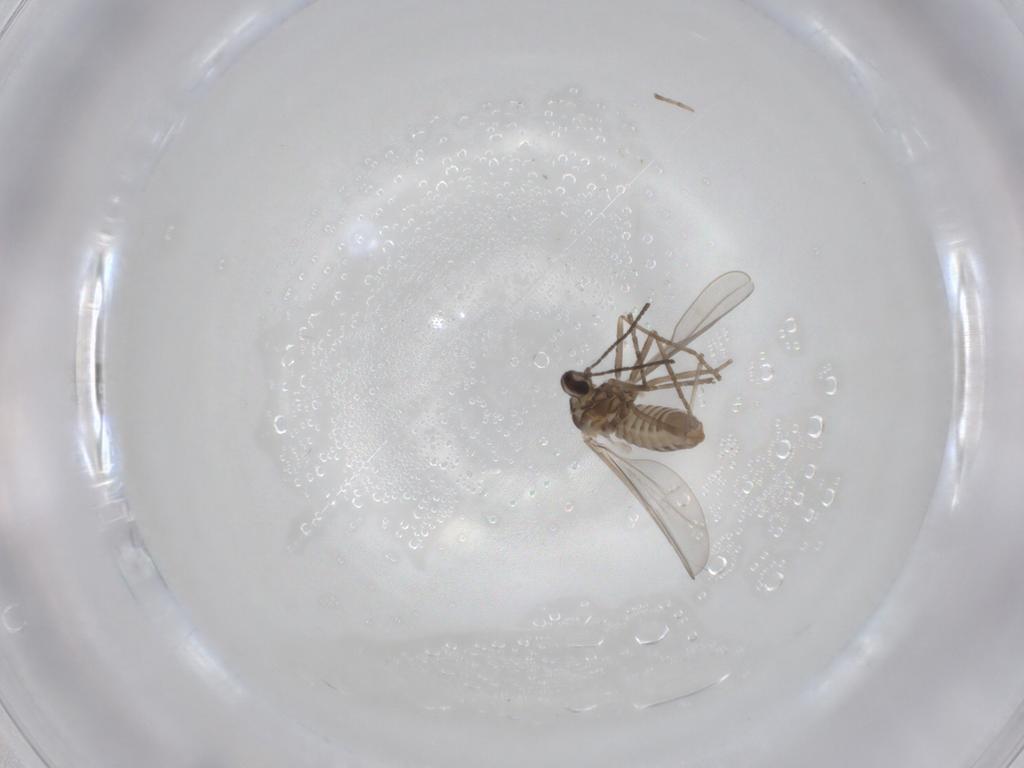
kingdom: Animalia
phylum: Arthropoda
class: Insecta
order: Diptera
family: Cecidomyiidae
